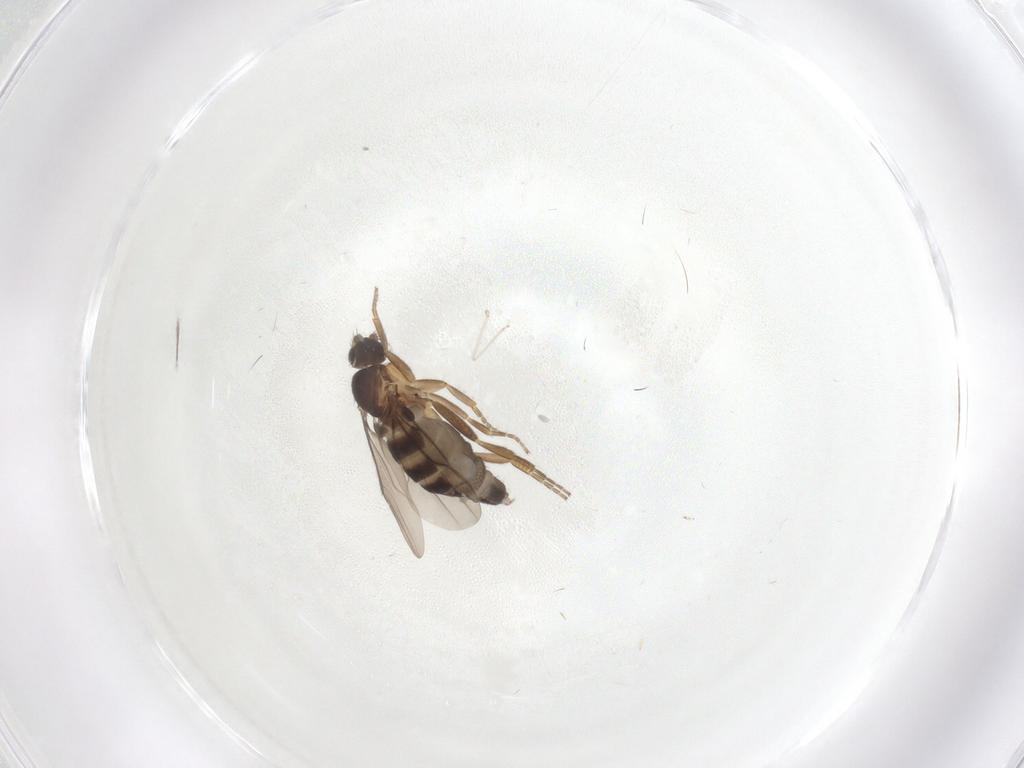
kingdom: Animalia
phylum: Arthropoda
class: Insecta
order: Diptera
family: Phoridae
